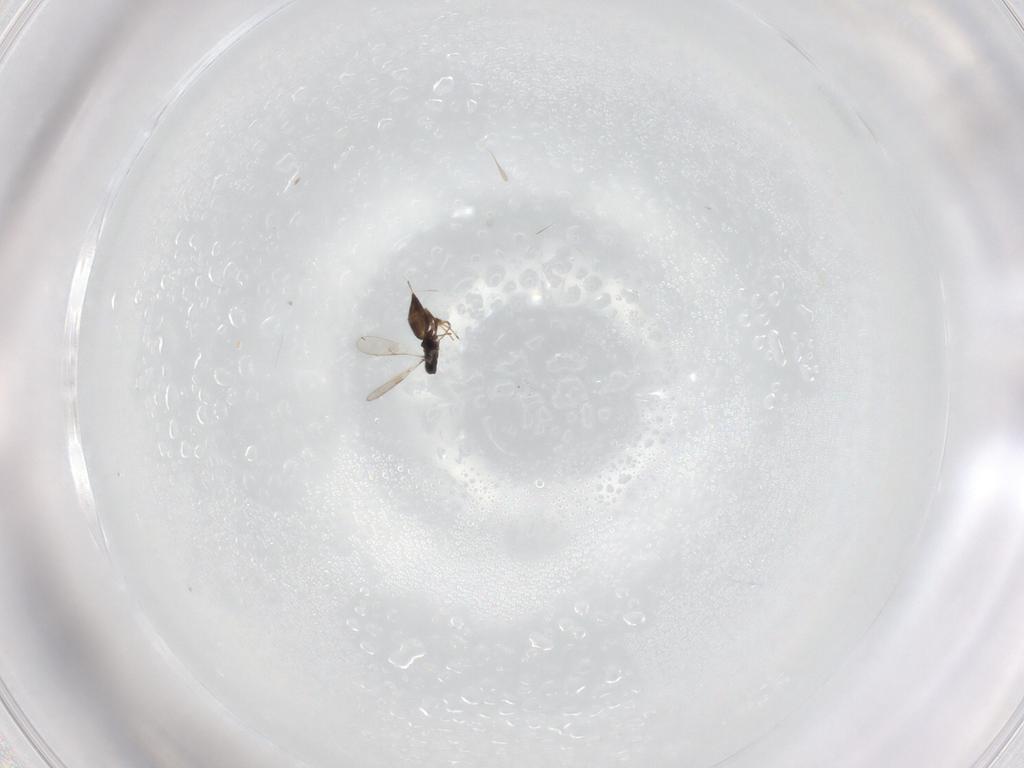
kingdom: Animalia
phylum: Arthropoda
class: Insecta
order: Hymenoptera
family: Scelionidae
